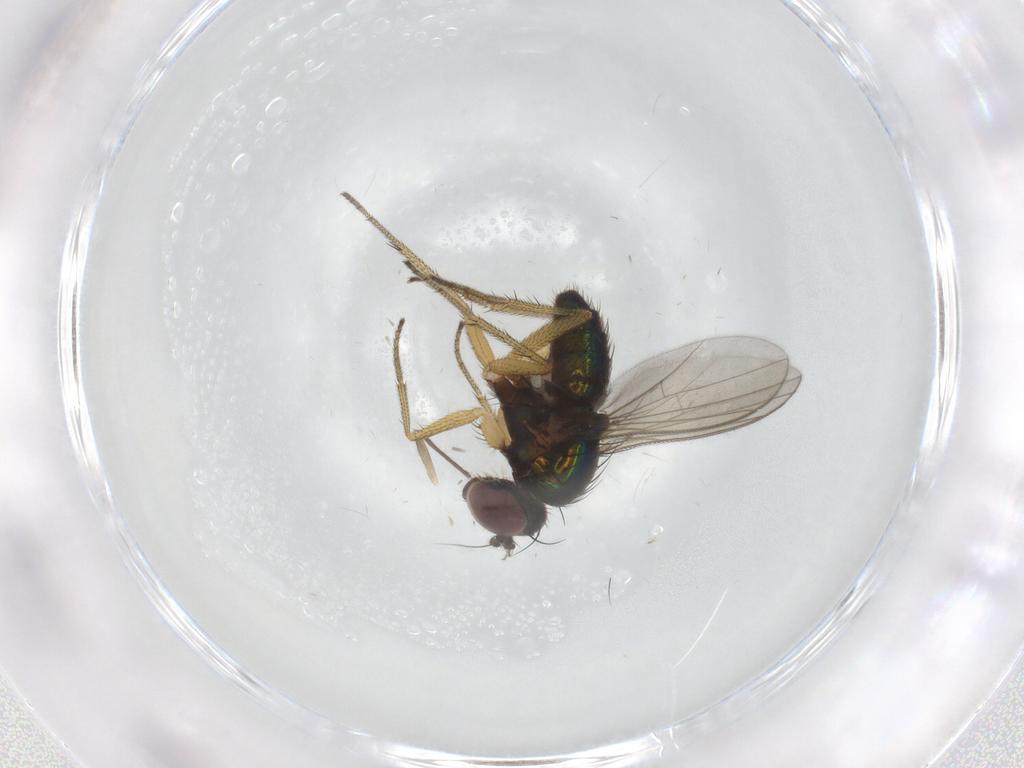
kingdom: Animalia
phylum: Arthropoda
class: Insecta
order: Diptera
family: Chironomidae
